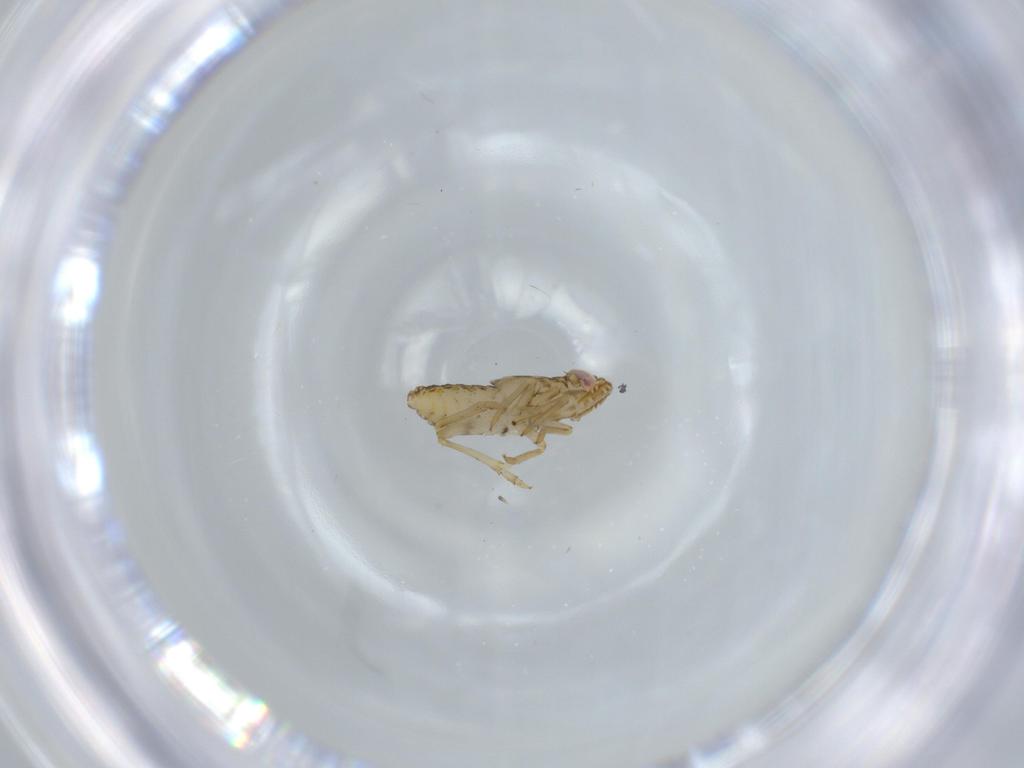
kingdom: Animalia
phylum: Arthropoda
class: Insecta
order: Hemiptera
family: Delphacidae
